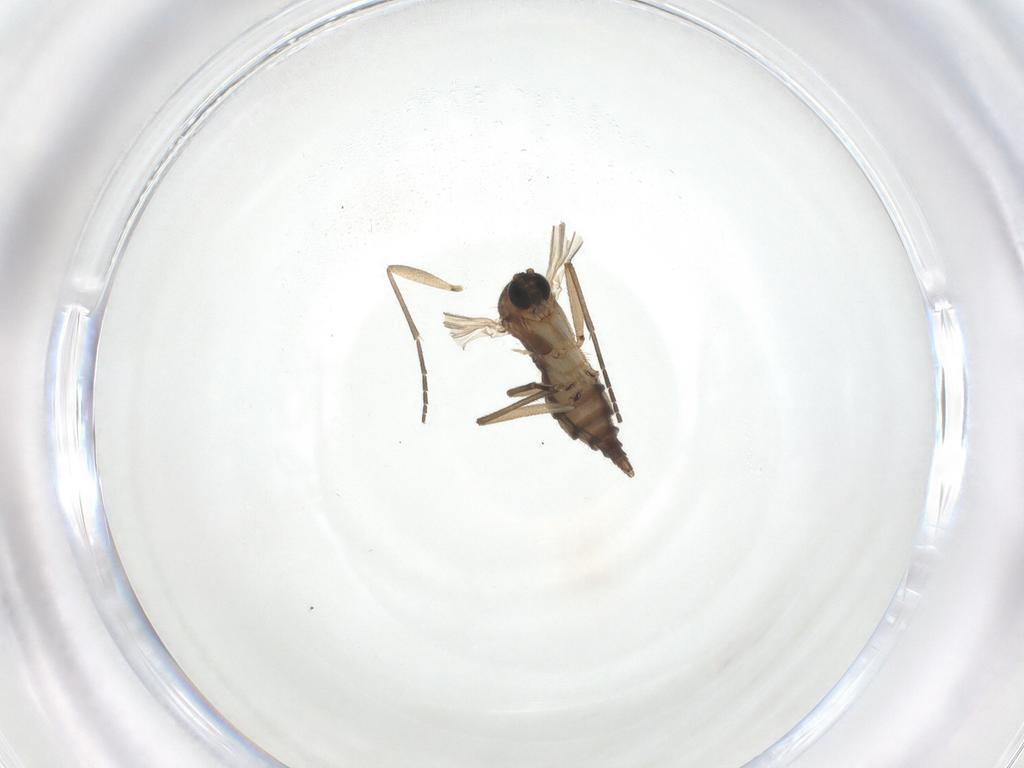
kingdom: Animalia
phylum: Arthropoda
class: Insecta
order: Diptera
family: Sciaridae
